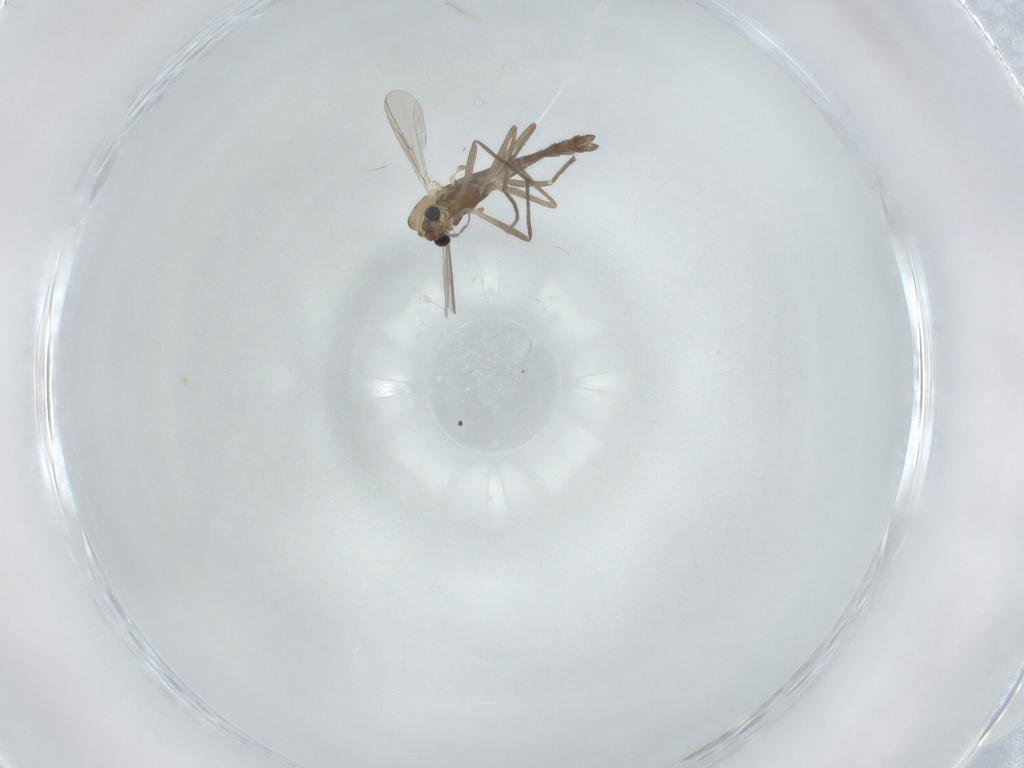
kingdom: Animalia
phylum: Arthropoda
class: Insecta
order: Diptera
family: Chironomidae
